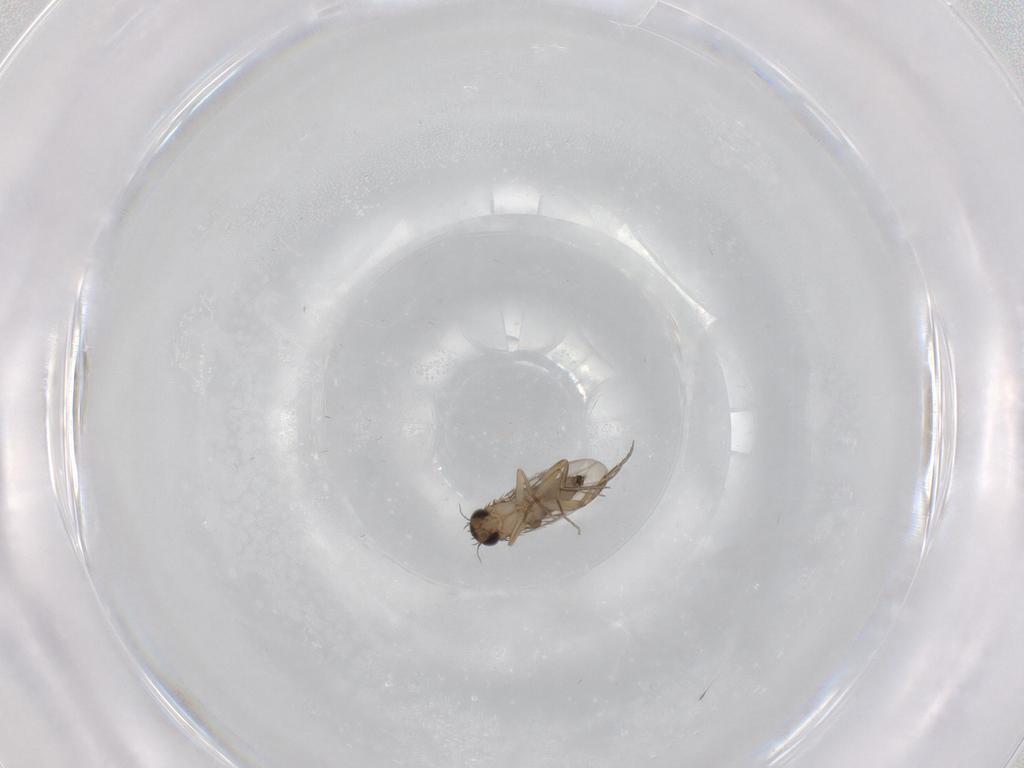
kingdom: Animalia
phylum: Arthropoda
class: Insecta
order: Diptera
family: Phoridae
